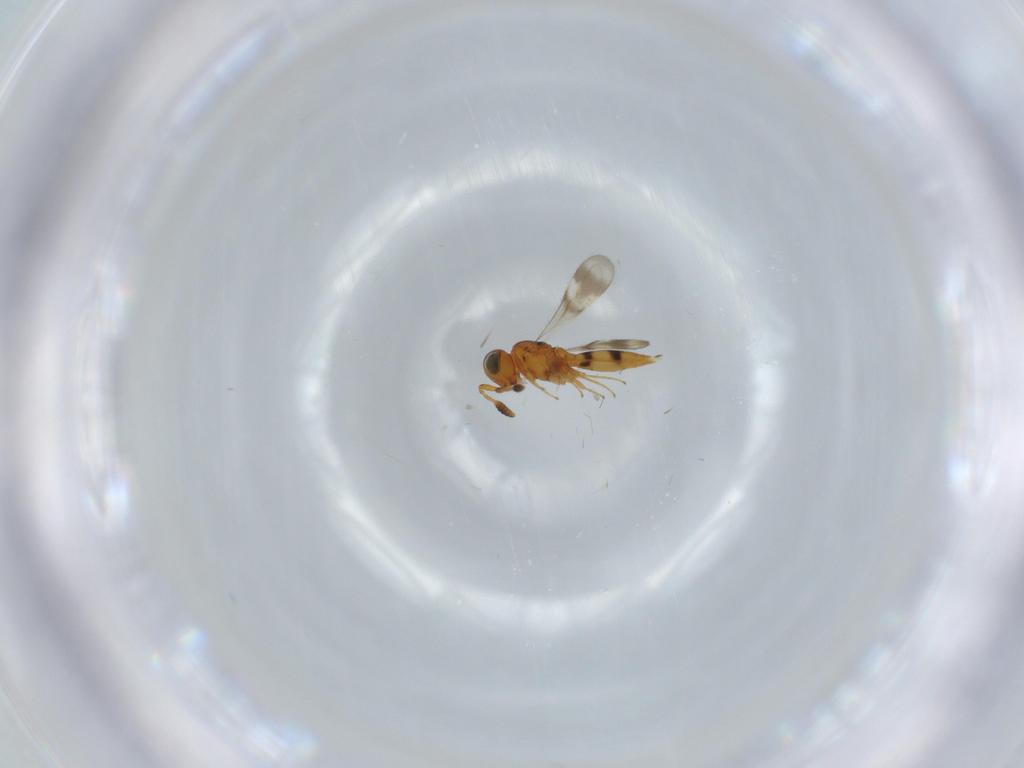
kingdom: Animalia
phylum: Arthropoda
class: Insecta
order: Hymenoptera
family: Scelionidae
